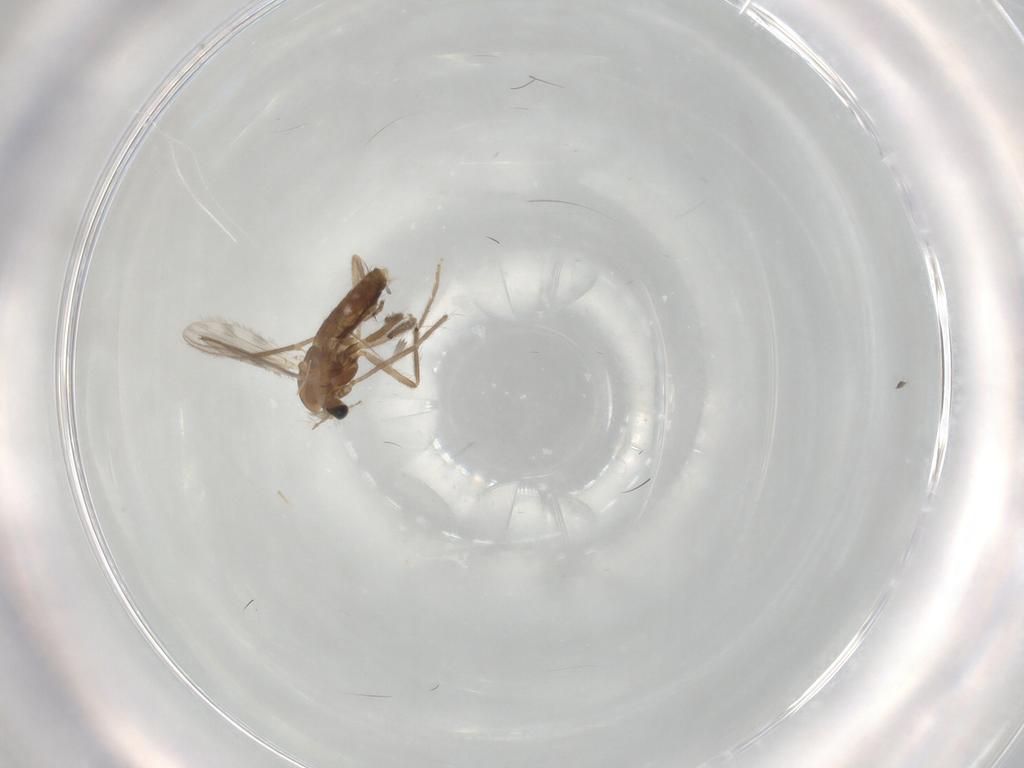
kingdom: Animalia
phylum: Arthropoda
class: Insecta
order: Diptera
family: Chironomidae
